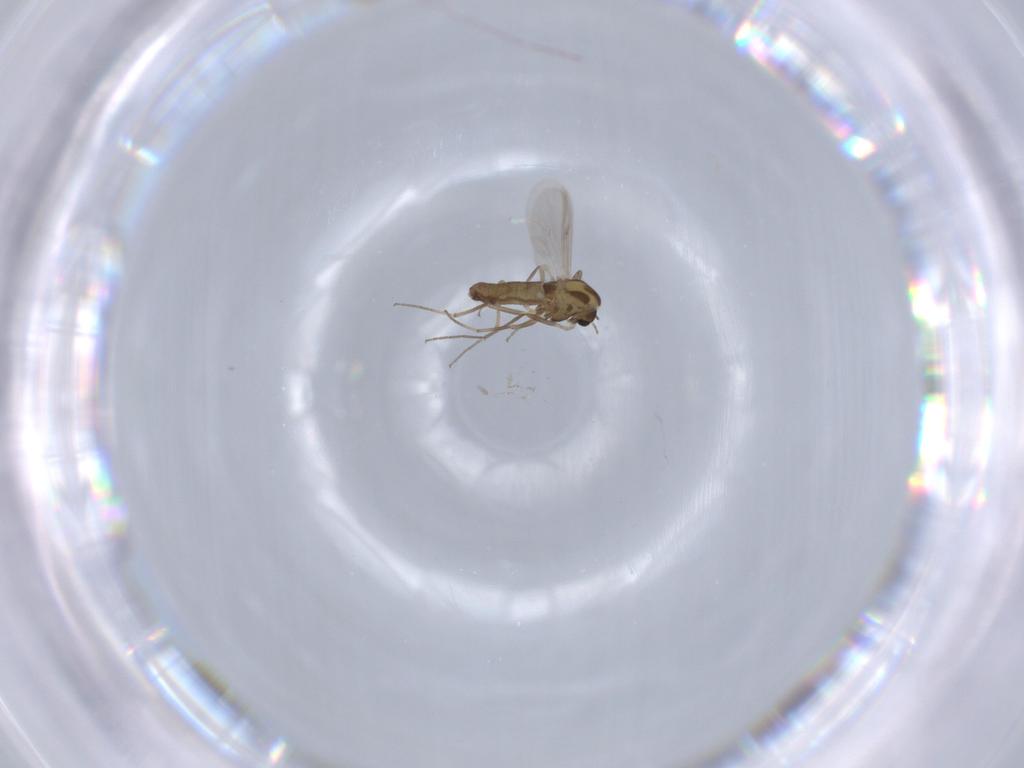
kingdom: Animalia
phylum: Arthropoda
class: Insecta
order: Diptera
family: Chironomidae
